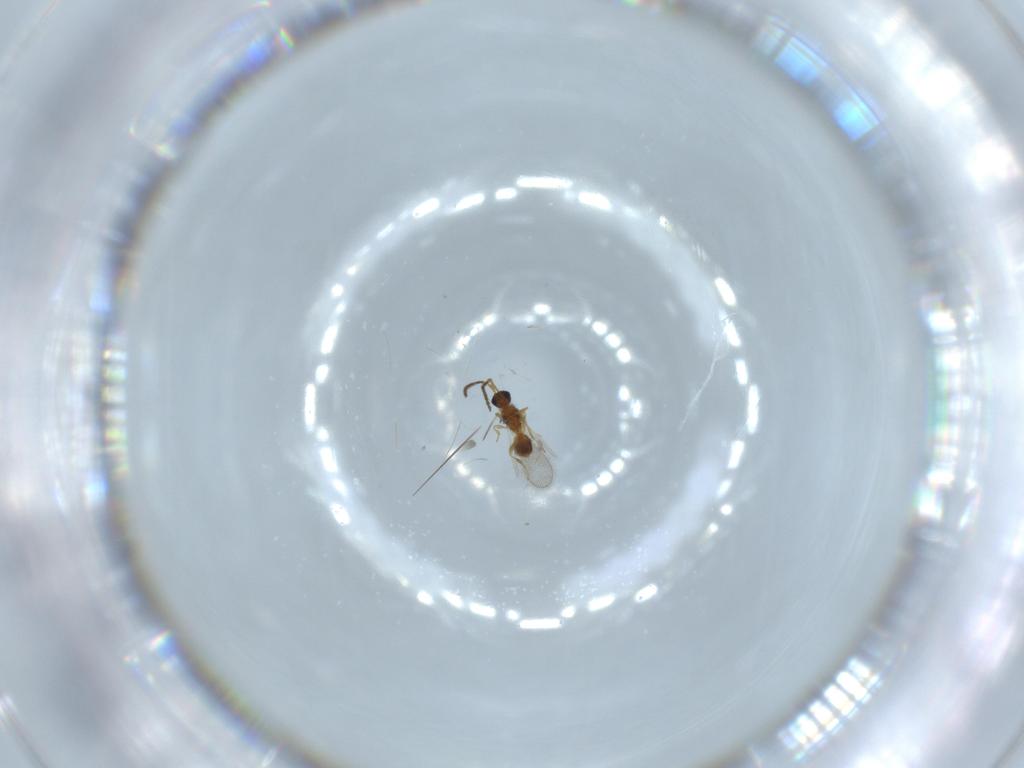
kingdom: Animalia
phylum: Arthropoda
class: Insecta
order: Hymenoptera
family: Diapriidae
